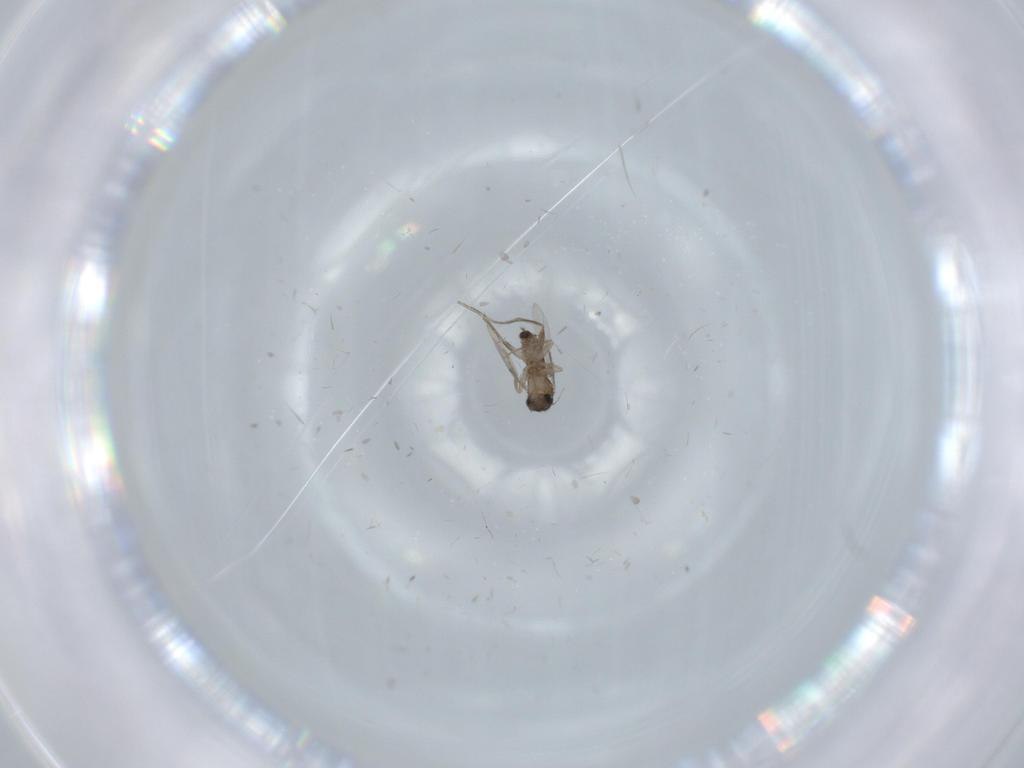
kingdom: Animalia
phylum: Arthropoda
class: Insecta
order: Diptera
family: Phoridae
